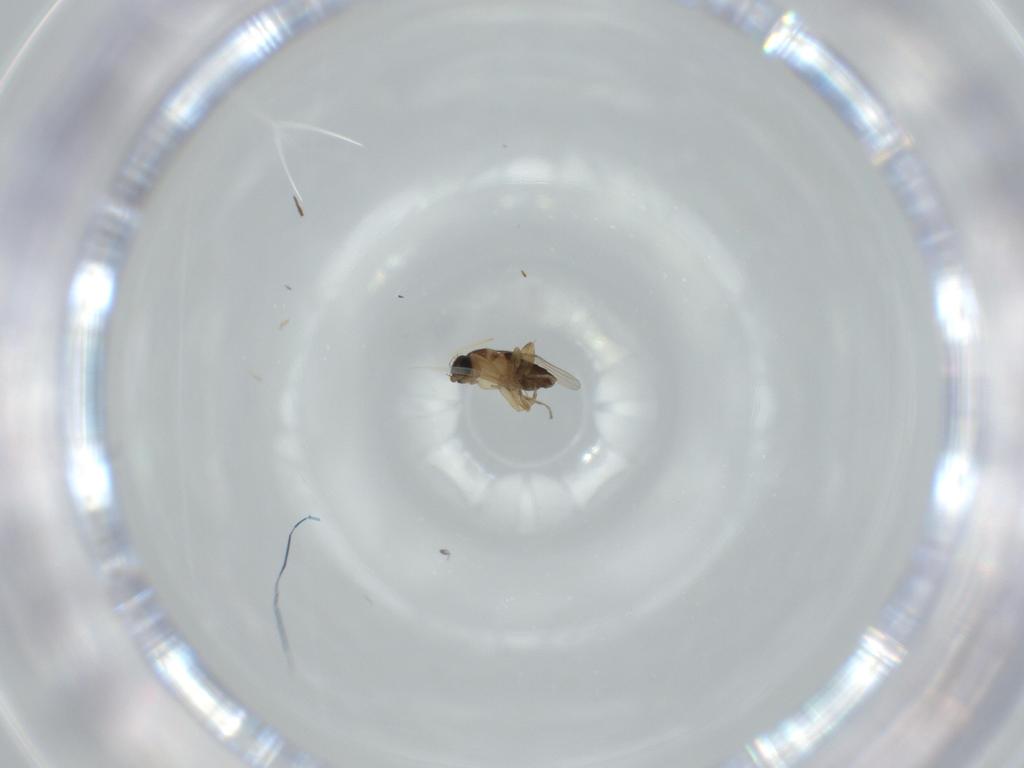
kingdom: Animalia
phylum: Arthropoda
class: Insecta
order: Diptera
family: Phoridae
